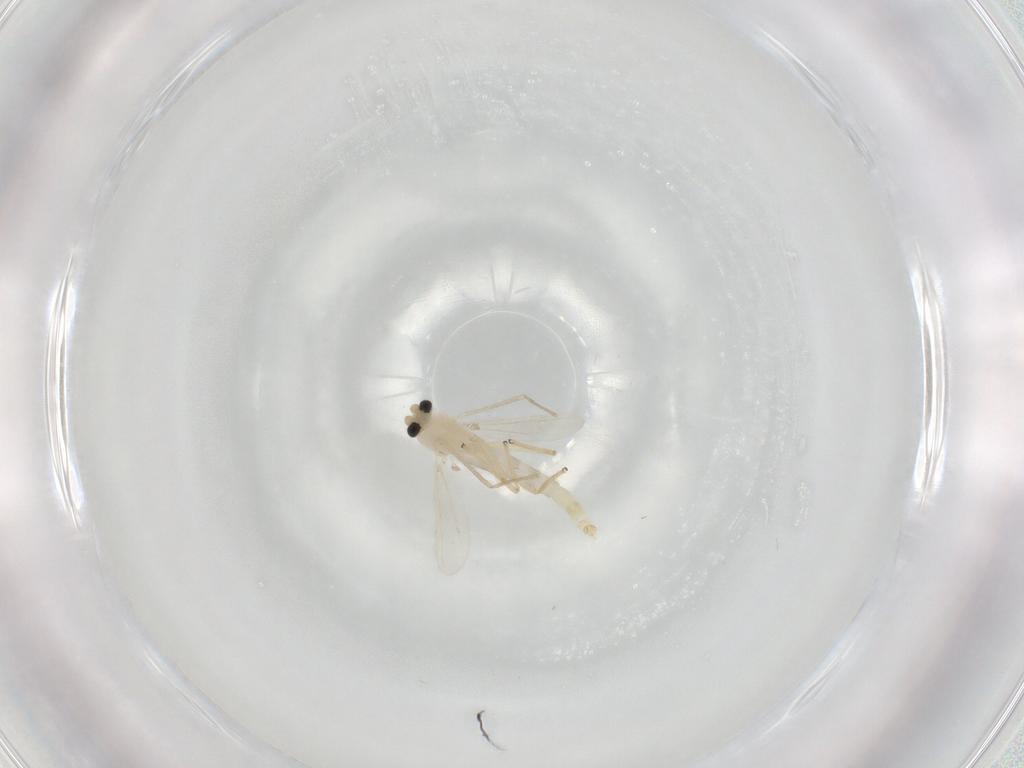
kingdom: Animalia
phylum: Arthropoda
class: Insecta
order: Diptera
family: Chironomidae
